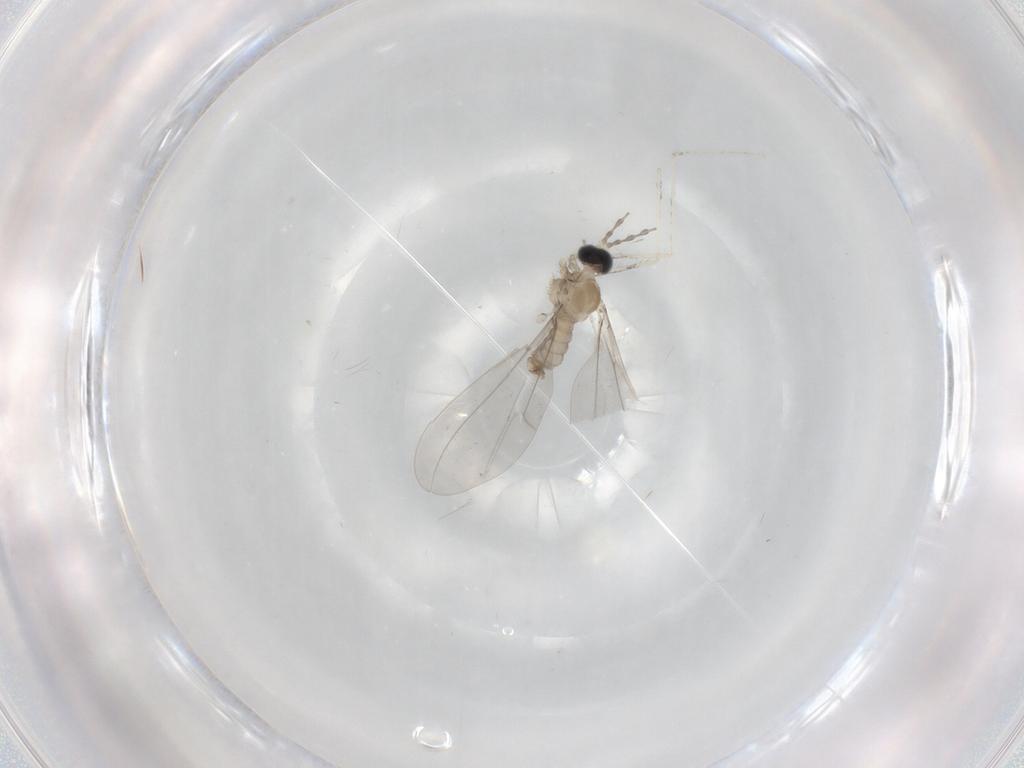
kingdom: Animalia
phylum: Arthropoda
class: Insecta
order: Diptera
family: Cecidomyiidae
